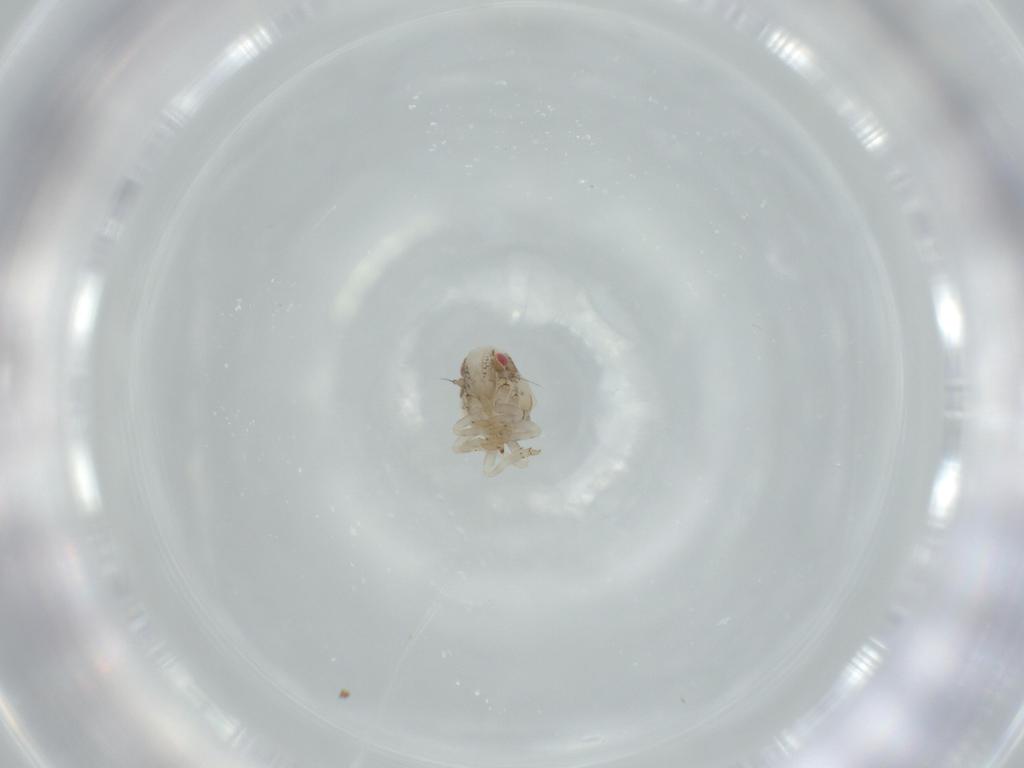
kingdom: Animalia
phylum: Arthropoda
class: Insecta
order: Hemiptera
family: Acanaloniidae
